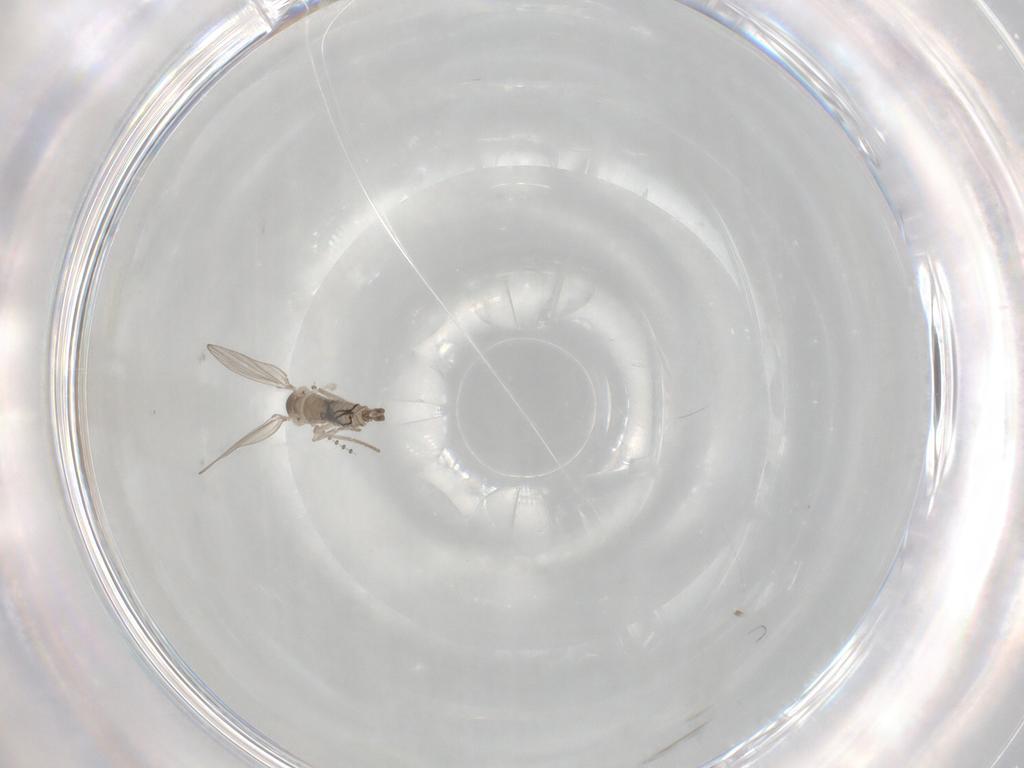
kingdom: Animalia
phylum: Arthropoda
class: Insecta
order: Diptera
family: Psychodidae
